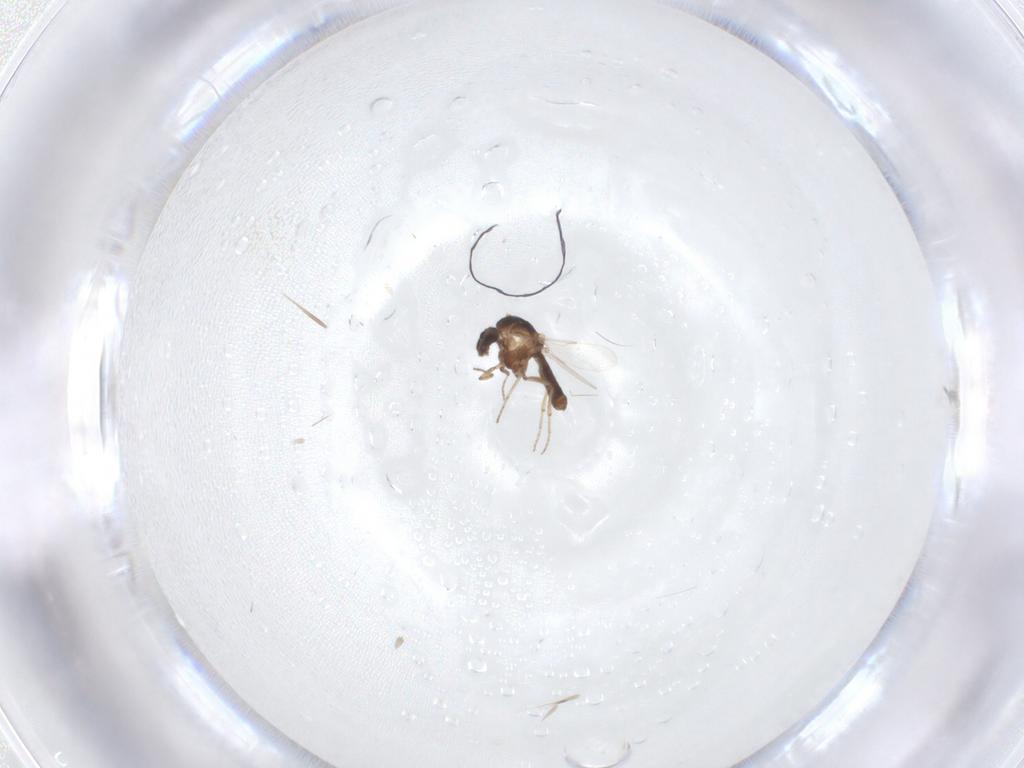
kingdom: Animalia
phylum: Arthropoda
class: Insecta
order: Diptera
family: Ceratopogonidae
